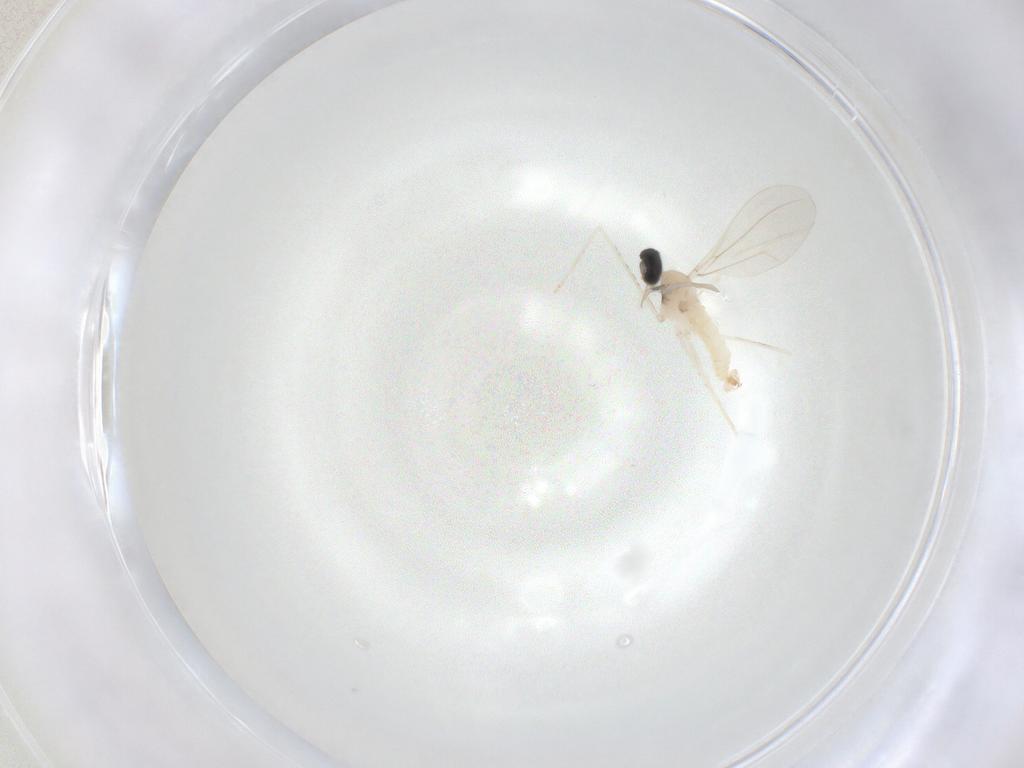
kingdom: Animalia
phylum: Arthropoda
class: Insecta
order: Diptera
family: Cecidomyiidae
